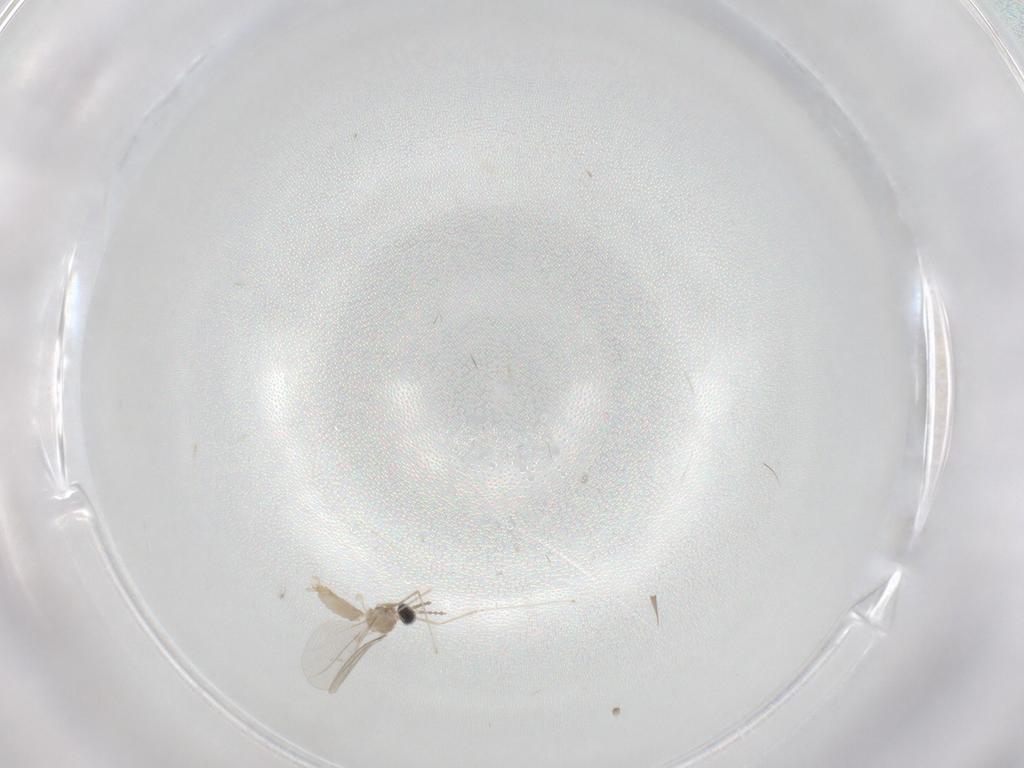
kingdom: Animalia
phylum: Arthropoda
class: Insecta
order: Diptera
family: Cecidomyiidae
